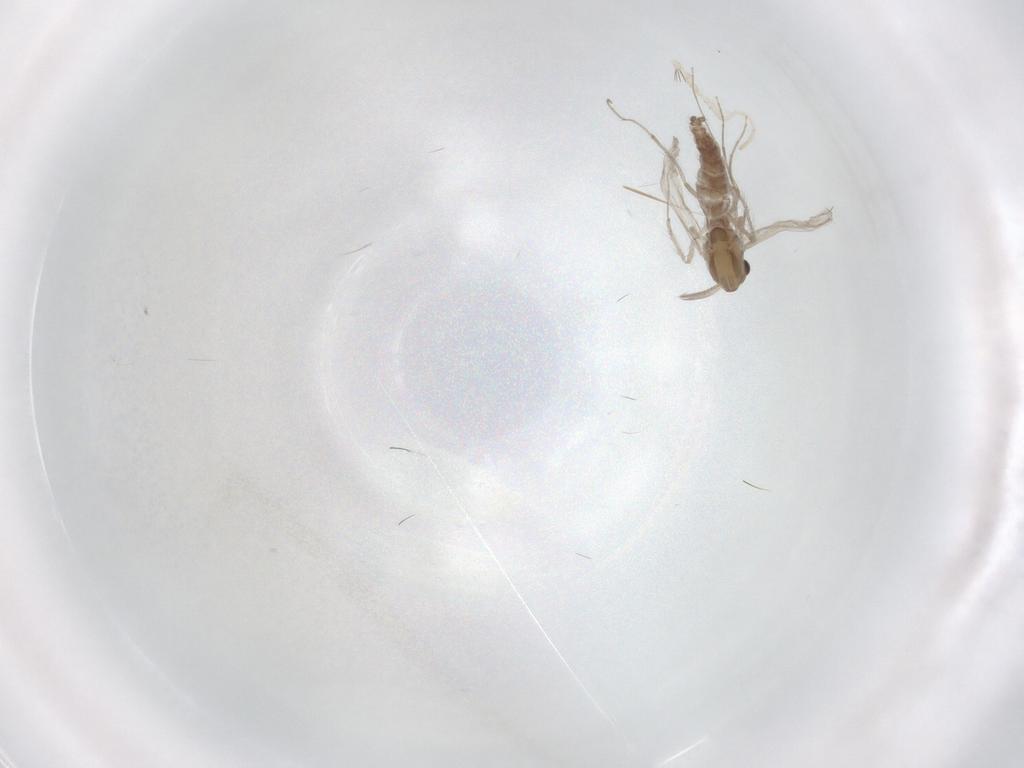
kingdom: Animalia
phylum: Arthropoda
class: Insecta
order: Diptera
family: Chironomidae
